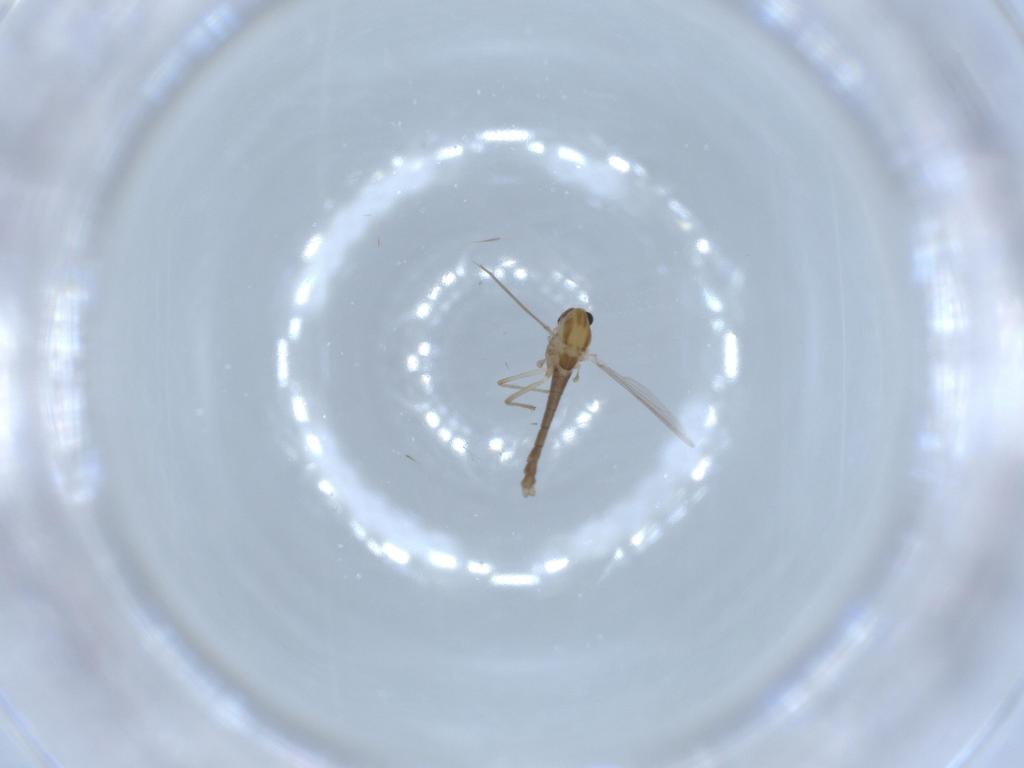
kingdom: Animalia
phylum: Arthropoda
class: Insecta
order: Diptera
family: Chironomidae
